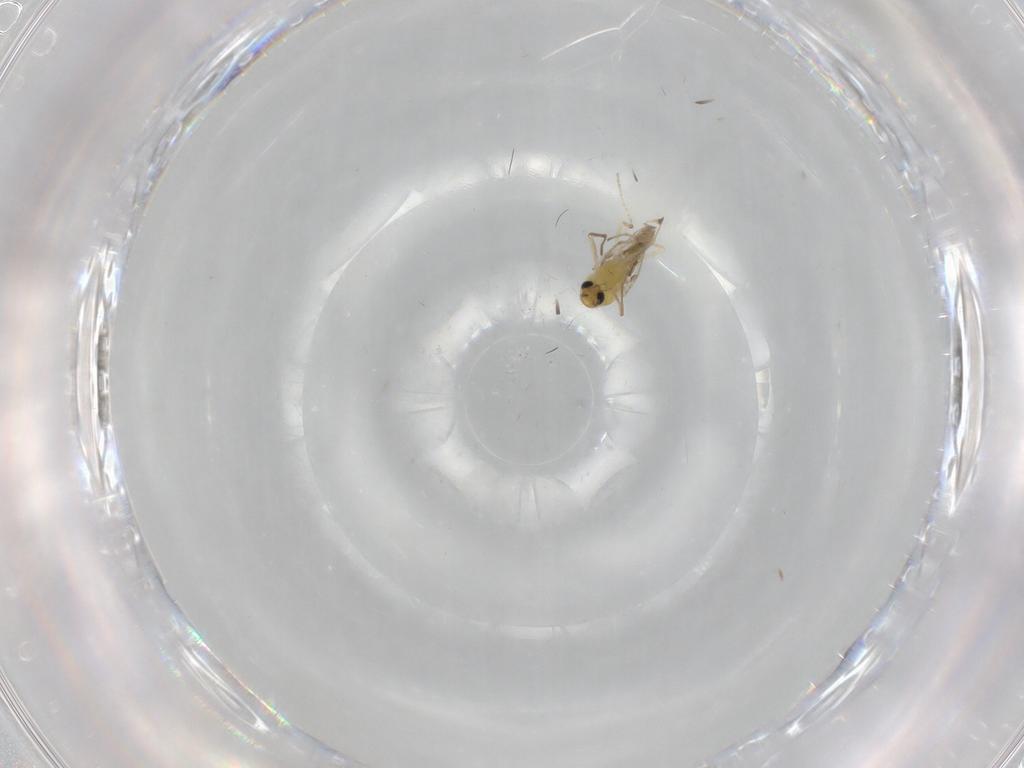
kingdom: Animalia
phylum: Arthropoda
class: Insecta
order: Diptera
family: Chironomidae
